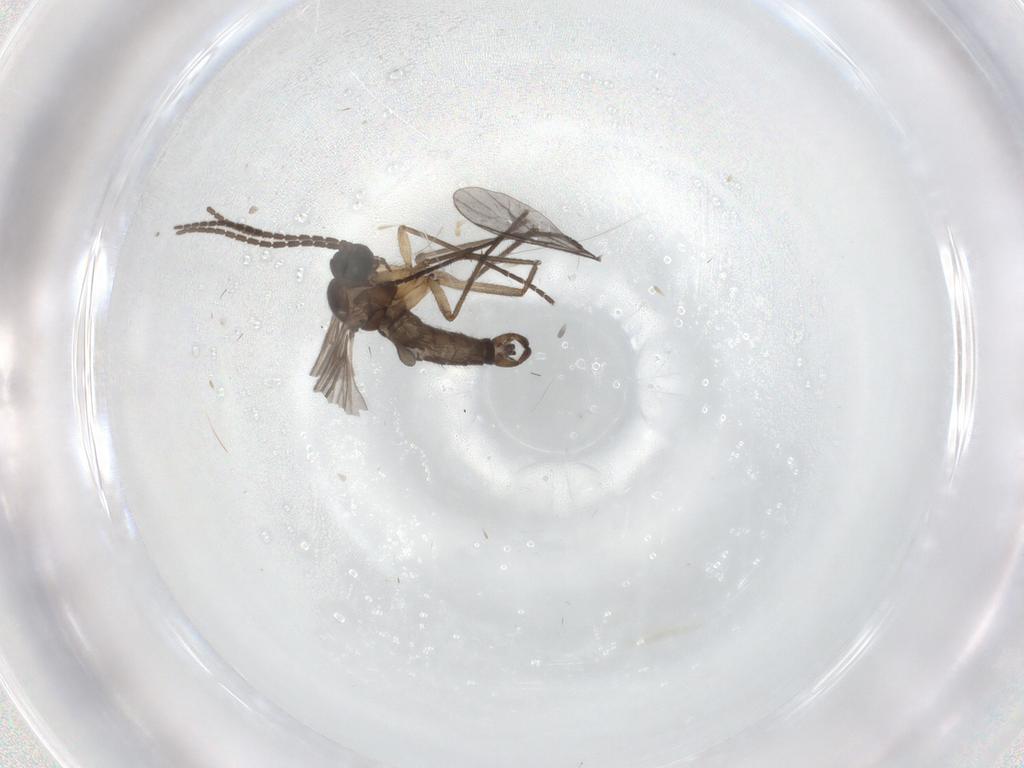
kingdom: Animalia
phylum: Arthropoda
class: Insecta
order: Diptera
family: Sciaridae
